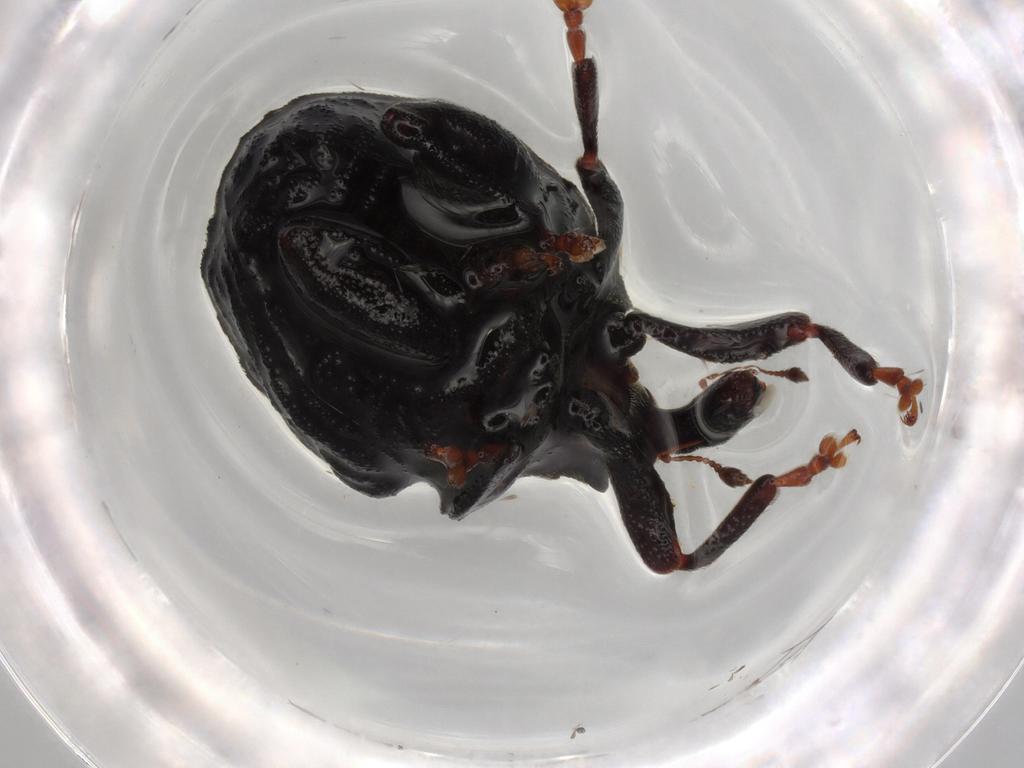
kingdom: Animalia
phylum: Arthropoda
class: Insecta
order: Coleoptera
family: Curculionidae
